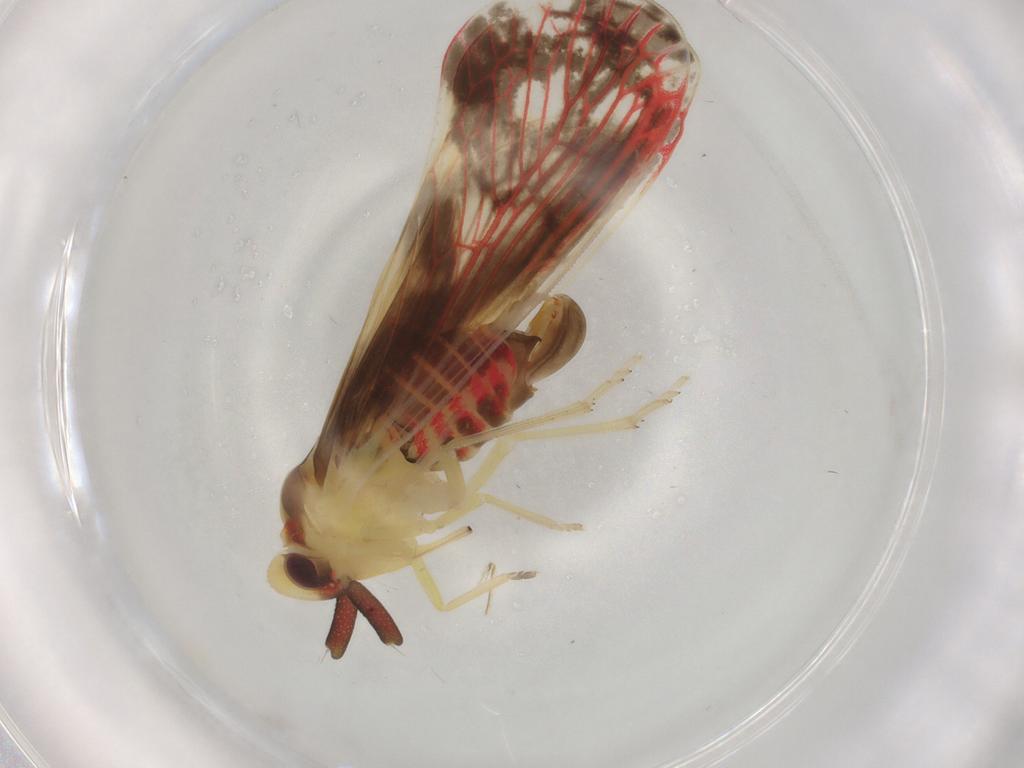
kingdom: Animalia
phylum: Arthropoda
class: Insecta
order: Hemiptera
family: Derbidae
